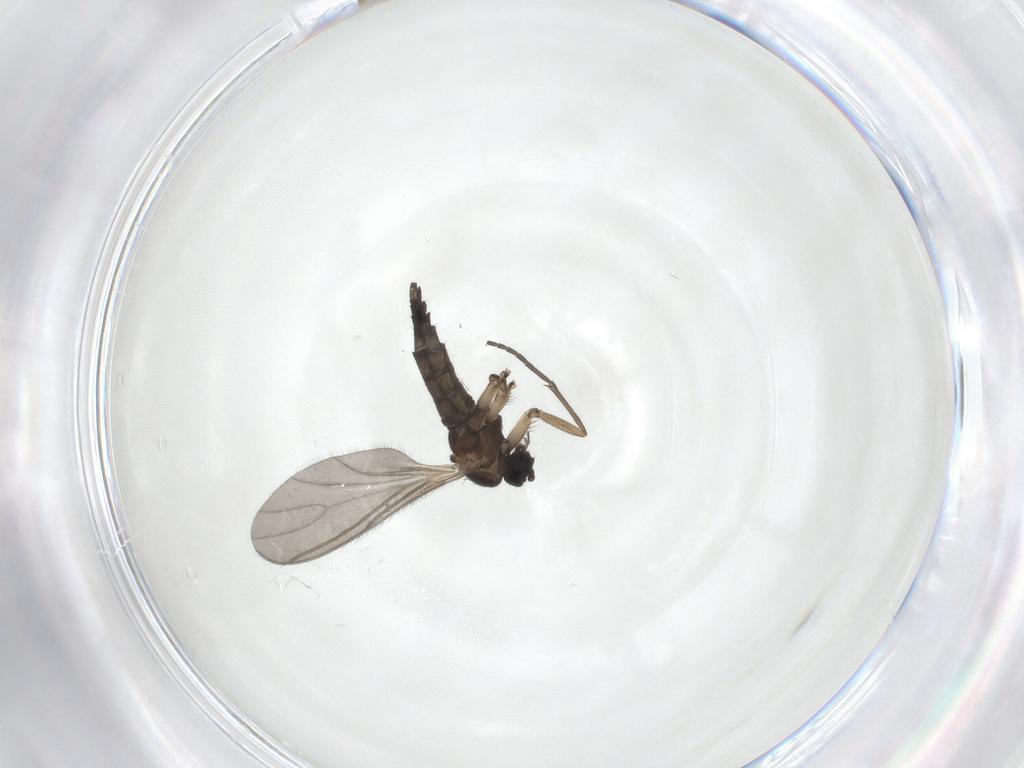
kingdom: Animalia
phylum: Arthropoda
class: Insecta
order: Diptera
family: Sciaridae
